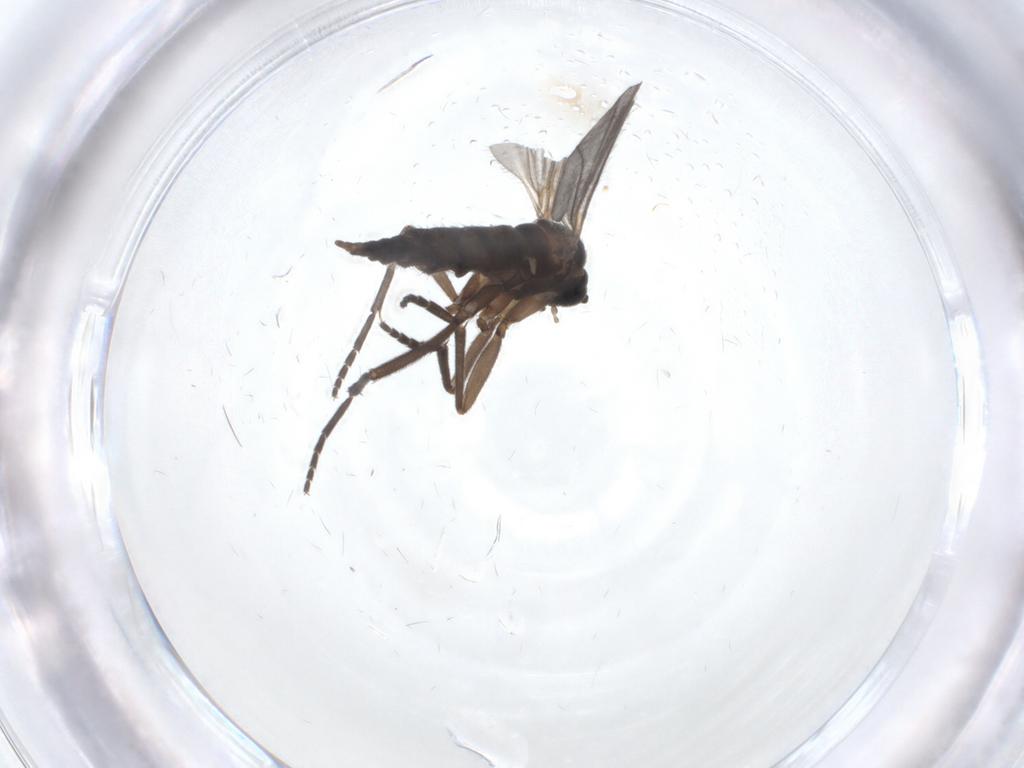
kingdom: Animalia
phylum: Arthropoda
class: Insecta
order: Diptera
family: Sciaridae
